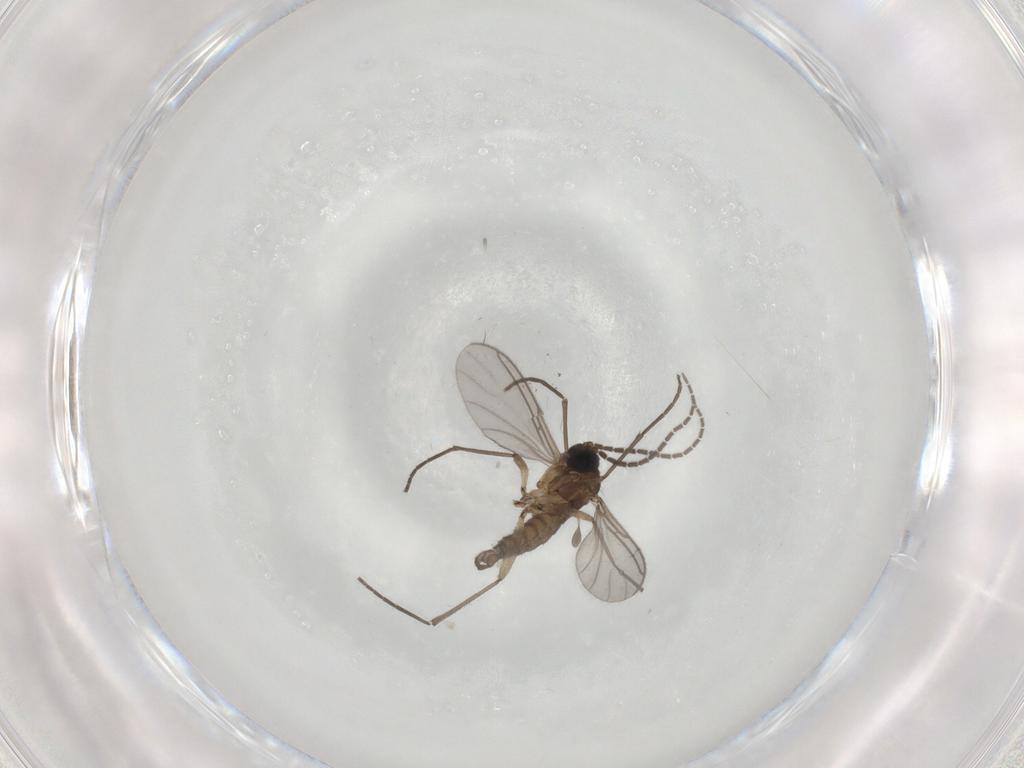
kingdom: Animalia
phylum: Arthropoda
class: Insecta
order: Diptera
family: Sciaridae
